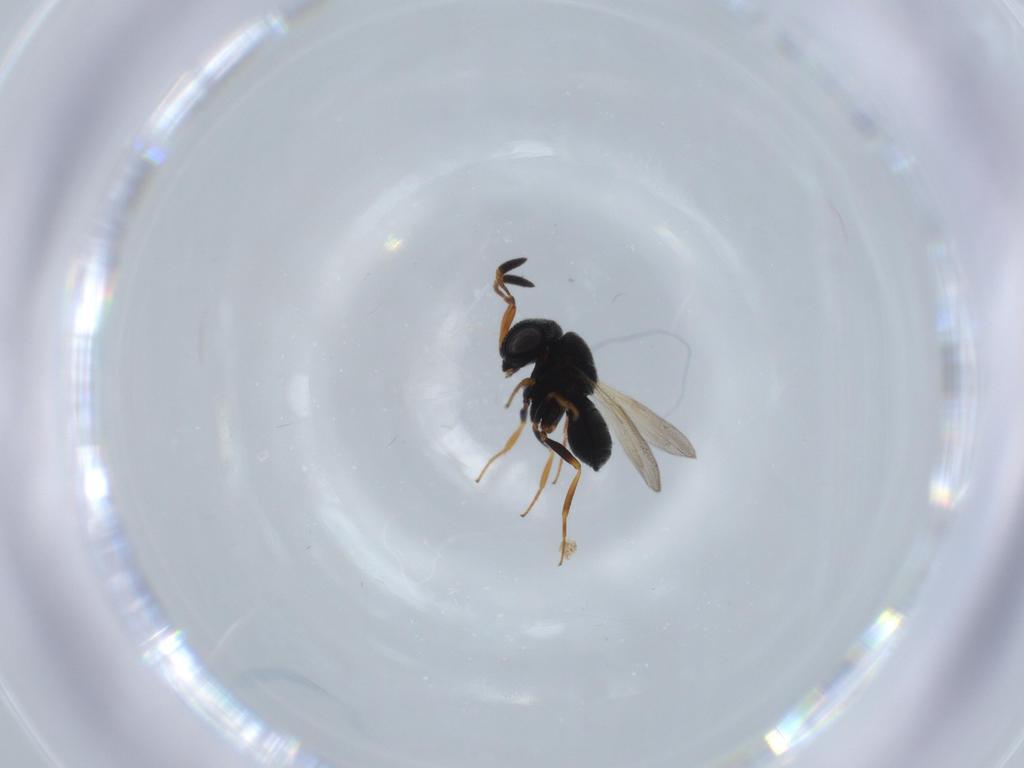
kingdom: Animalia
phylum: Arthropoda
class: Insecta
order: Hymenoptera
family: Scelionidae
